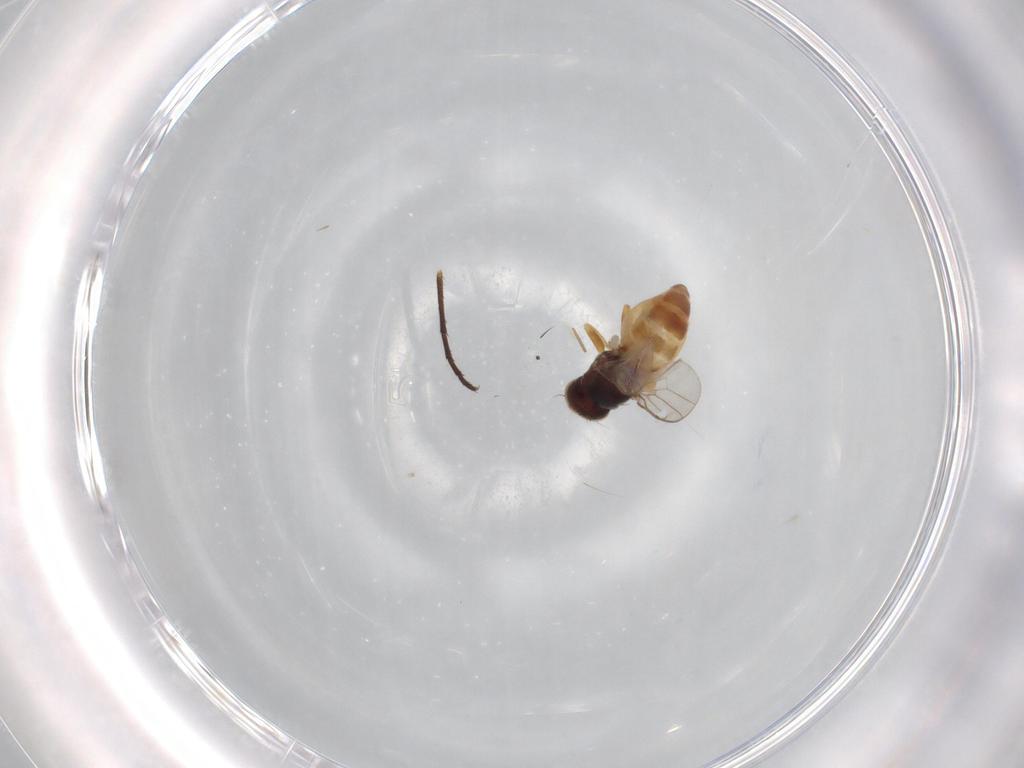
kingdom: Animalia
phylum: Arthropoda
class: Insecta
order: Diptera
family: Dolichopodidae
